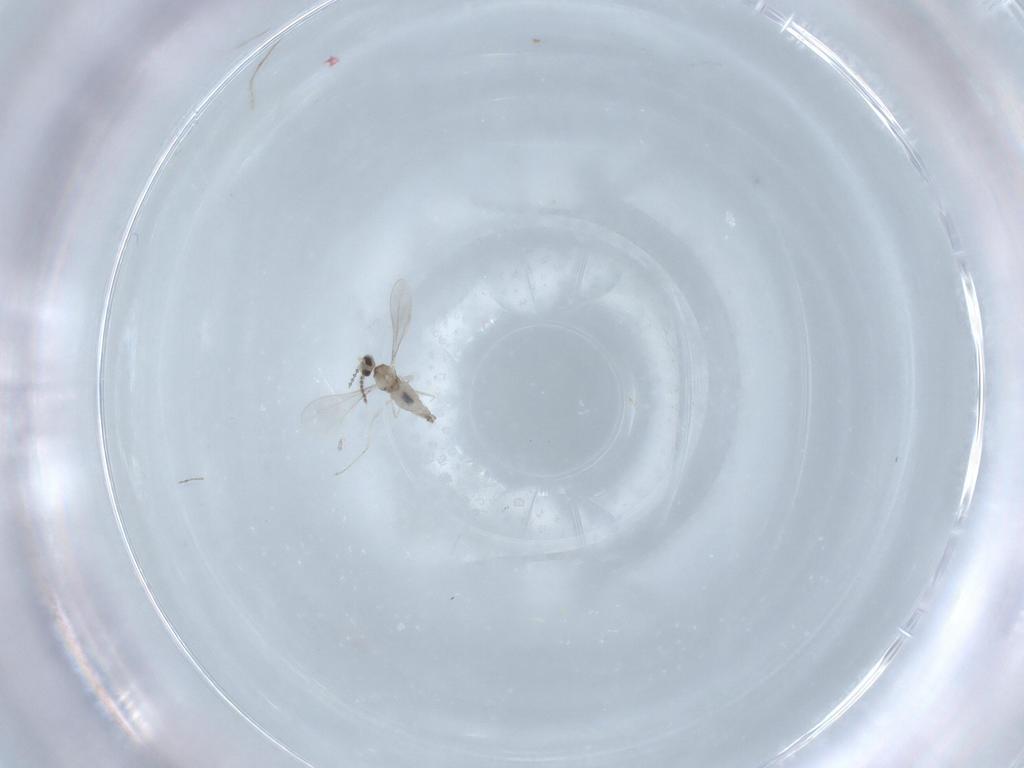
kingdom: Animalia
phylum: Arthropoda
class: Insecta
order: Diptera
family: Cecidomyiidae
